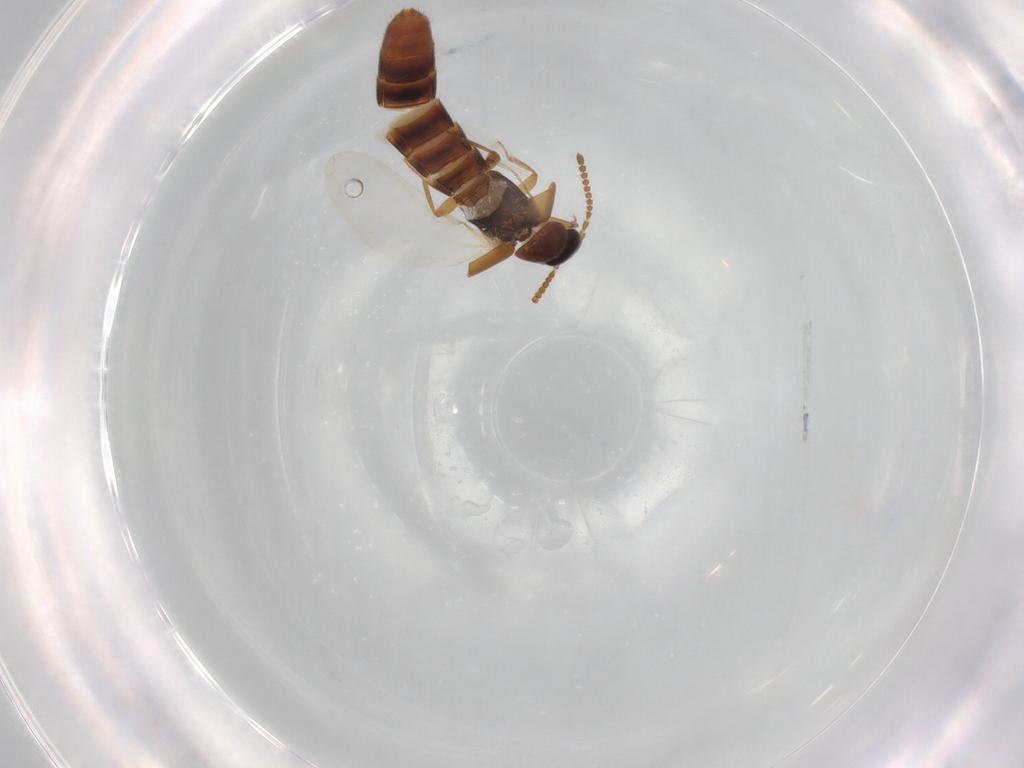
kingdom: Animalia
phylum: Arthropoda
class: Insecta
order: Coleoptera
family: Staphylinidae
